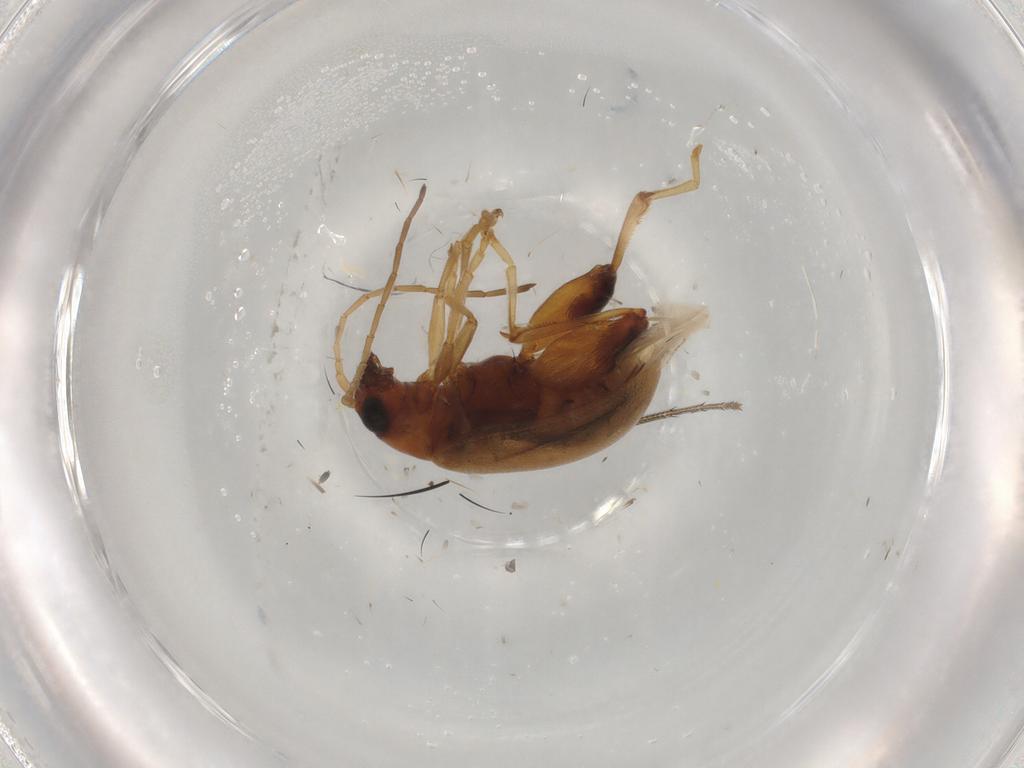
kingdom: Animalia
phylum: Arthropoda
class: Insecta
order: Coleoptera
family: Chrysomelidae
